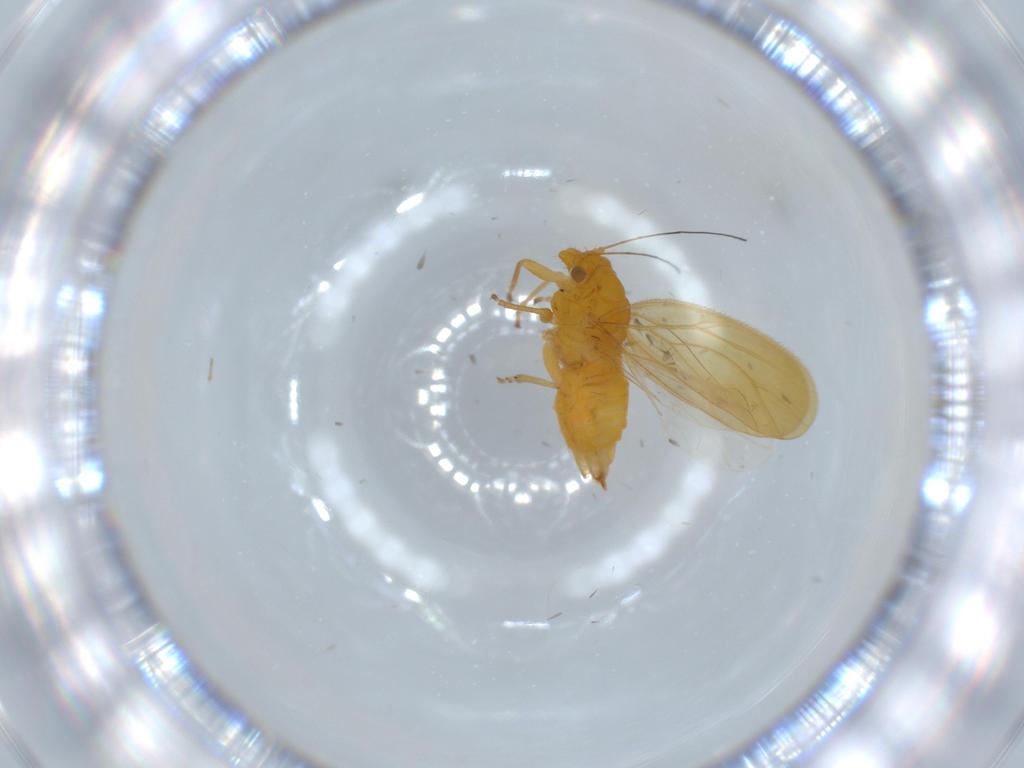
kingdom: Animalia
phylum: Arthropoda
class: Insecta
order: Hemiptera
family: Psyllidae
